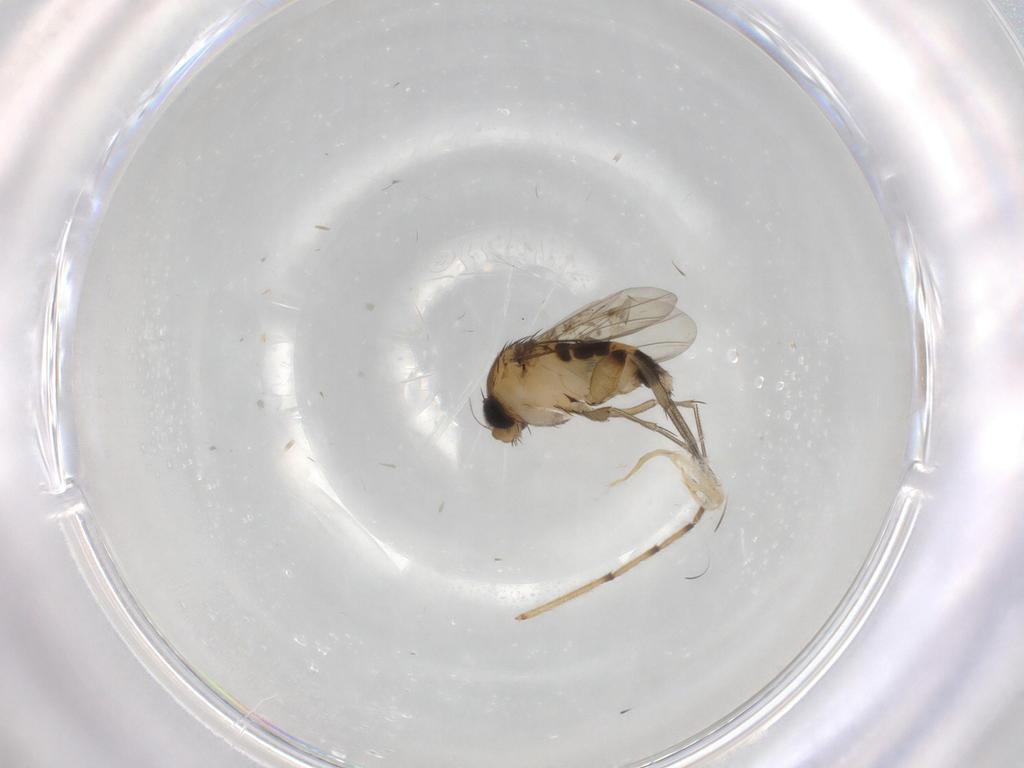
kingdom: Animalia
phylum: Arthropoda
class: Insecta
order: Diptera
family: Phoridae
